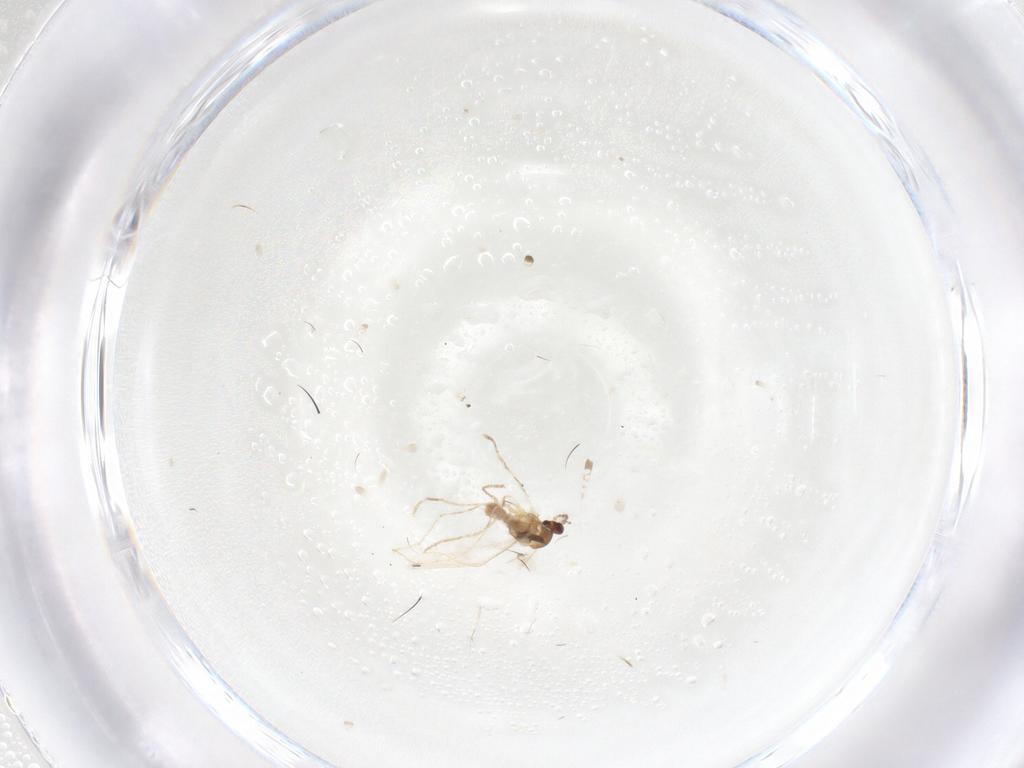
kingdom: Animalia
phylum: Arthropoda
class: Insecta
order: Diptera
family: Cecidomyiidae
